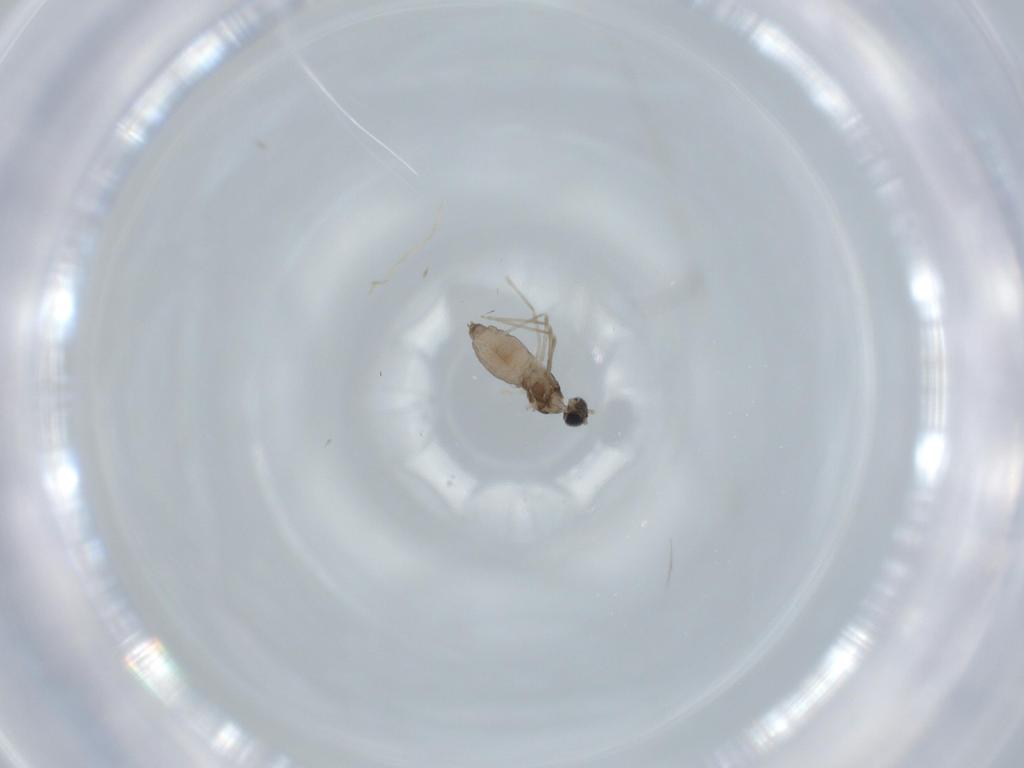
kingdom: Animalia
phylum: Arthropoda
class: Insecta
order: Diptera
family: Cecidomyiidae
